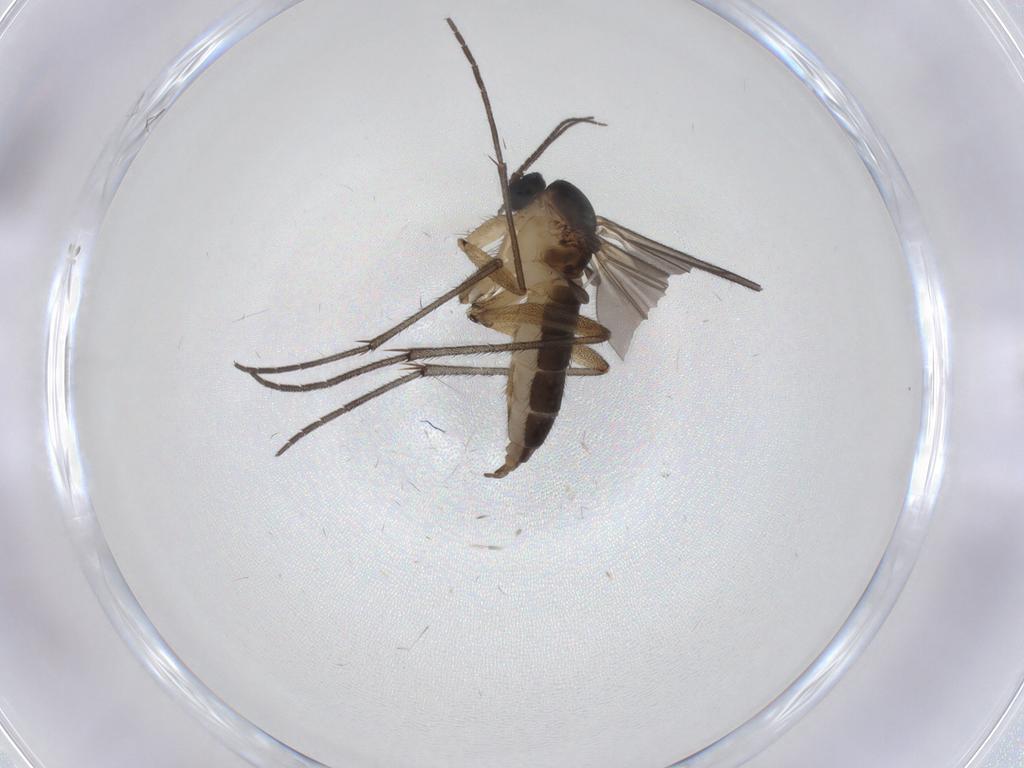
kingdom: Animalia
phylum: Arthropoda
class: Insecta
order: Diptera
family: Sciaridae
